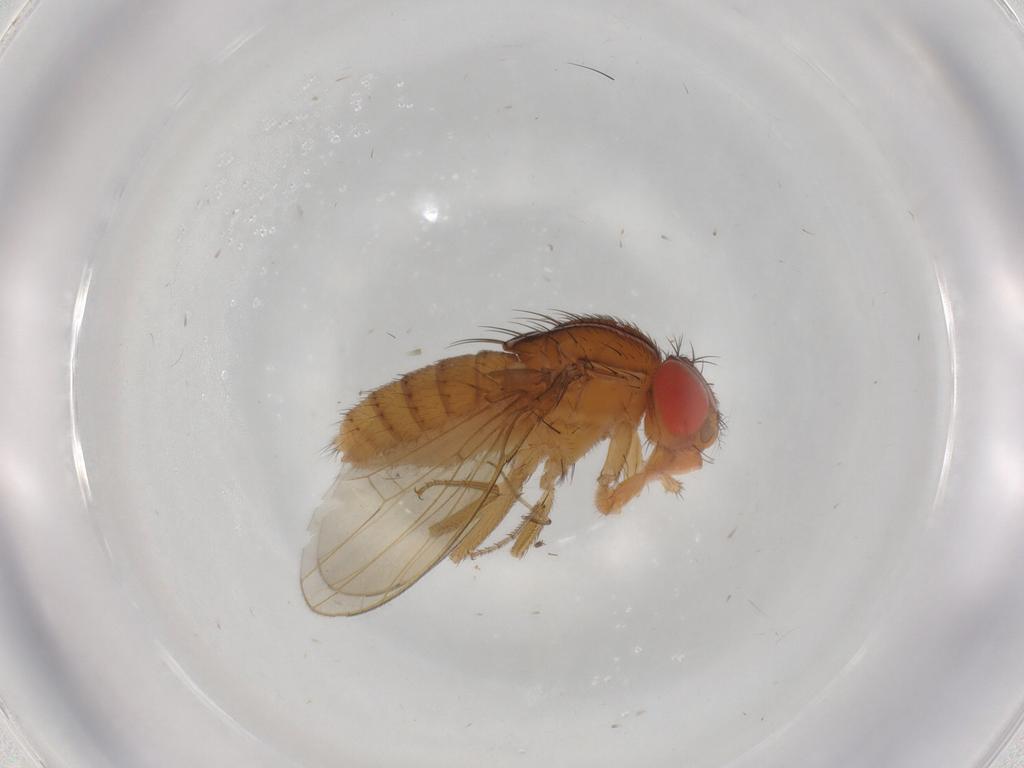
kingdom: Animalia
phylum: Arthropoda
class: Insecta
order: Diptera
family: Drosophilidae
